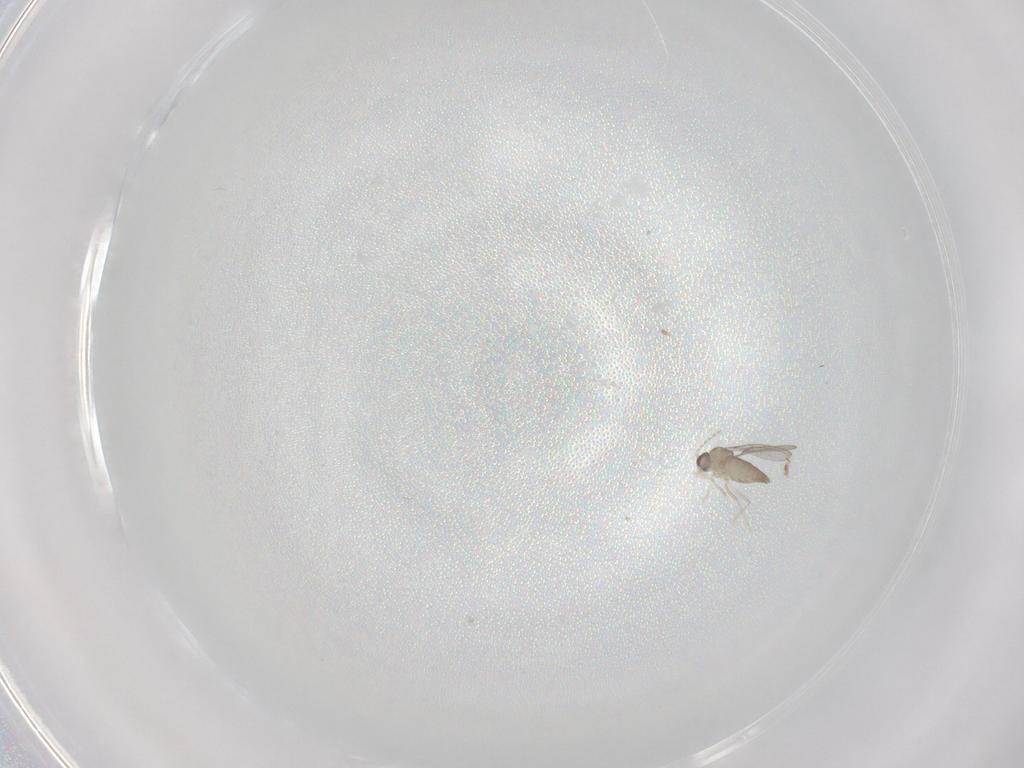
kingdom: Animalia
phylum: Arthropoda
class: Insecta
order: Diptera
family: Cecidomyiidae
